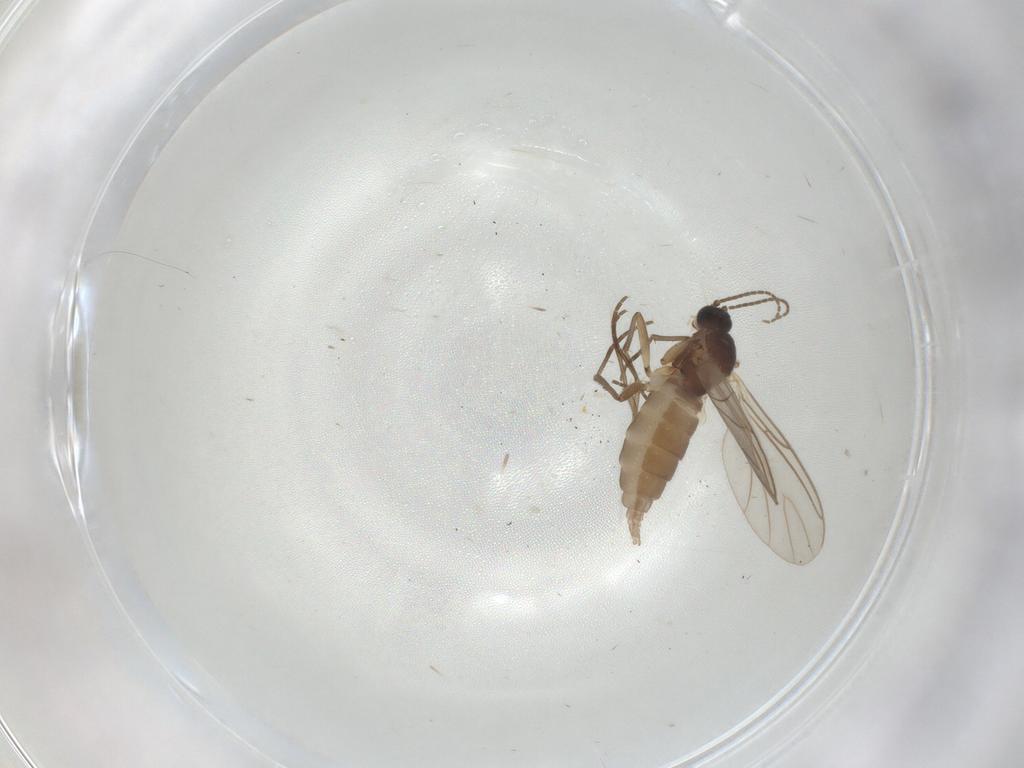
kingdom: Animalia
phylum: Arthropoda
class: Insecta
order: Diptera
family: Sciaridae
